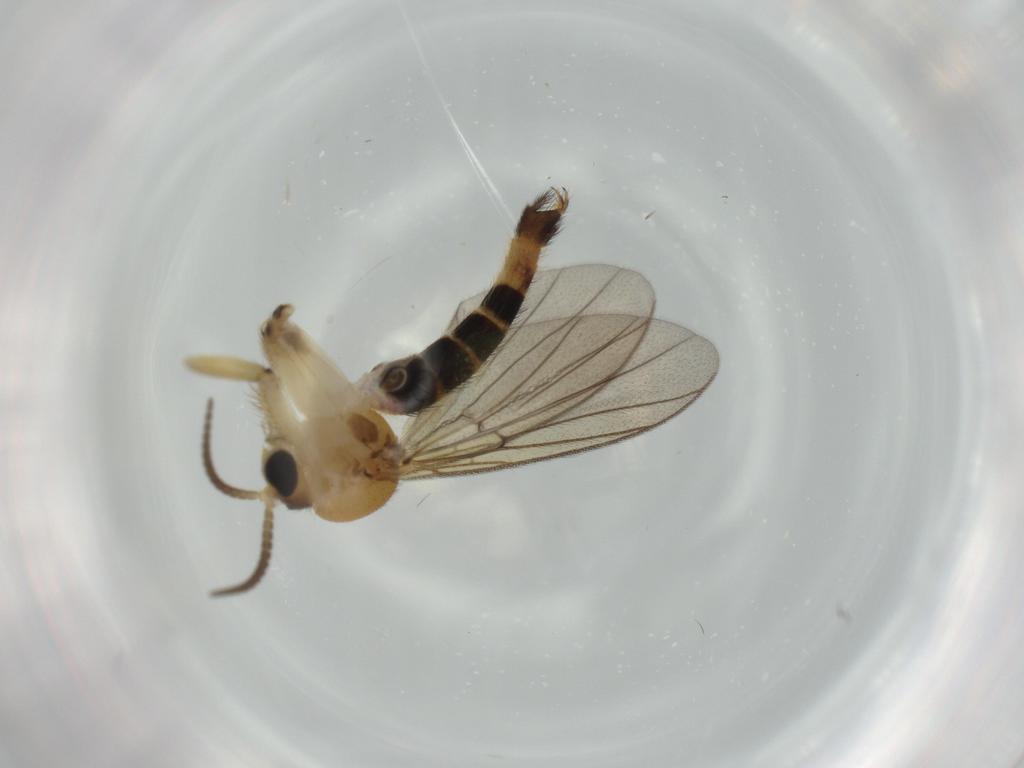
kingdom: Animalia
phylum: Arthropoda
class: Insecta
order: Diptera
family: Mycetophilidae
